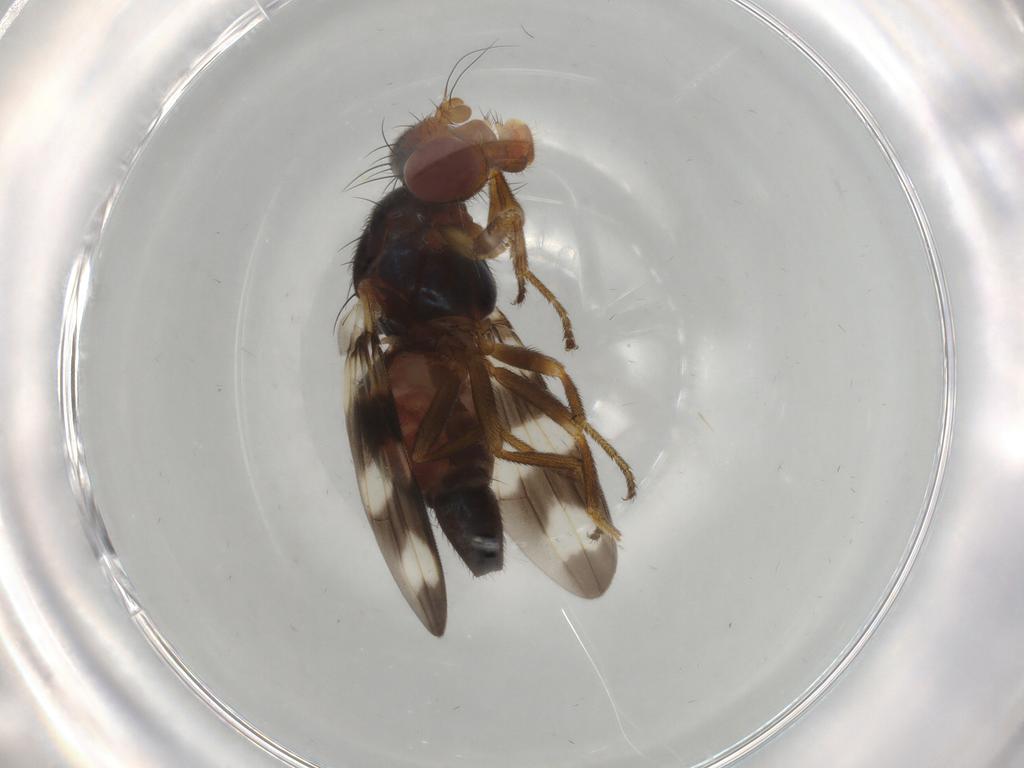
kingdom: Animalia
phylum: Arthropoda
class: Insecta
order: Diptera
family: Ulidiidae
